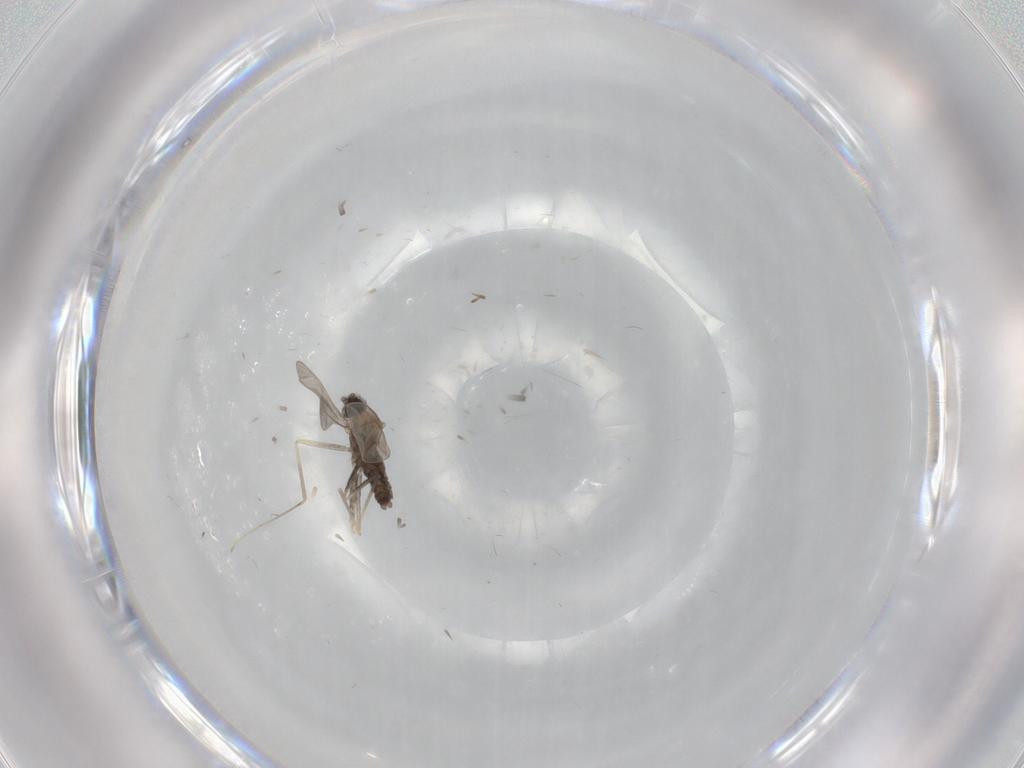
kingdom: Animalia
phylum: Arthropoda
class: Insecta
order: Diptera
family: Cecidomyiidae
